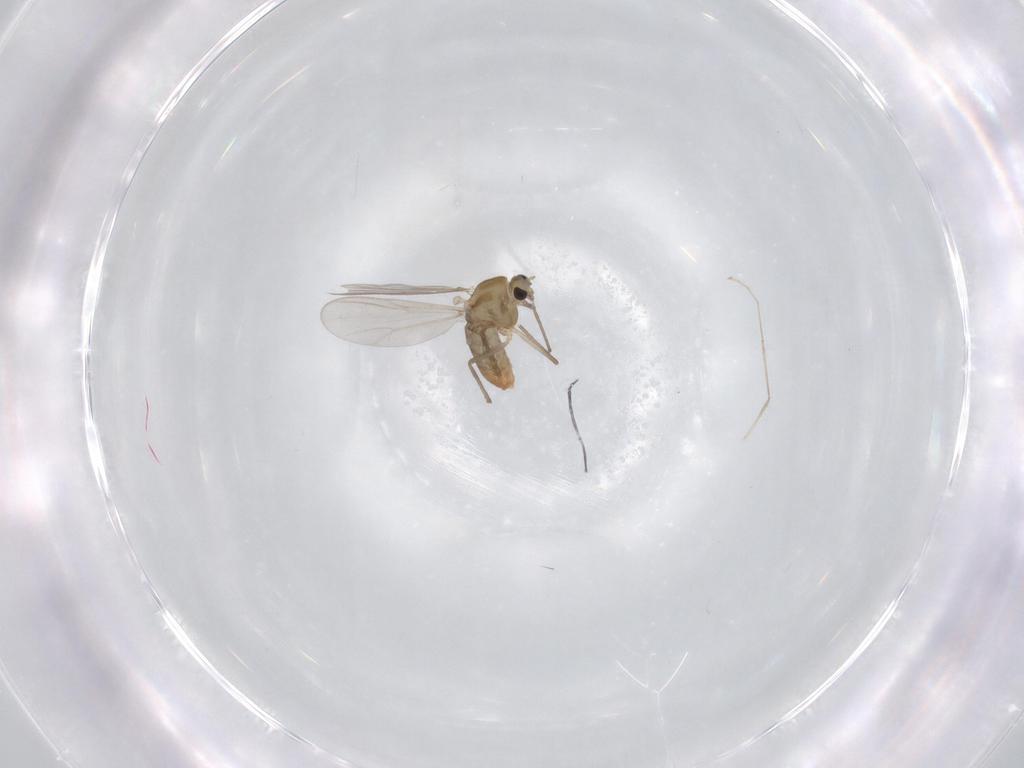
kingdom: Animalia
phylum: Arthropoda
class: Insecta
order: Diptera
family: Chironomidae
